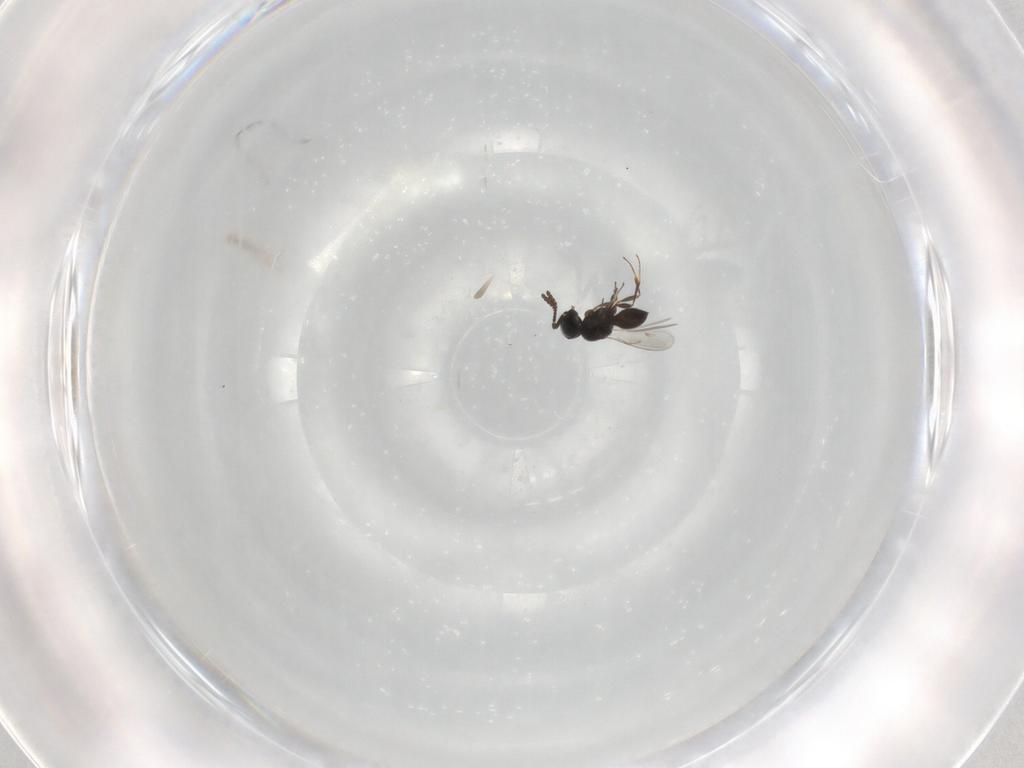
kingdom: Animalia
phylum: Arthropoda
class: Insecta
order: Hymenoptera
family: Scelionidae
